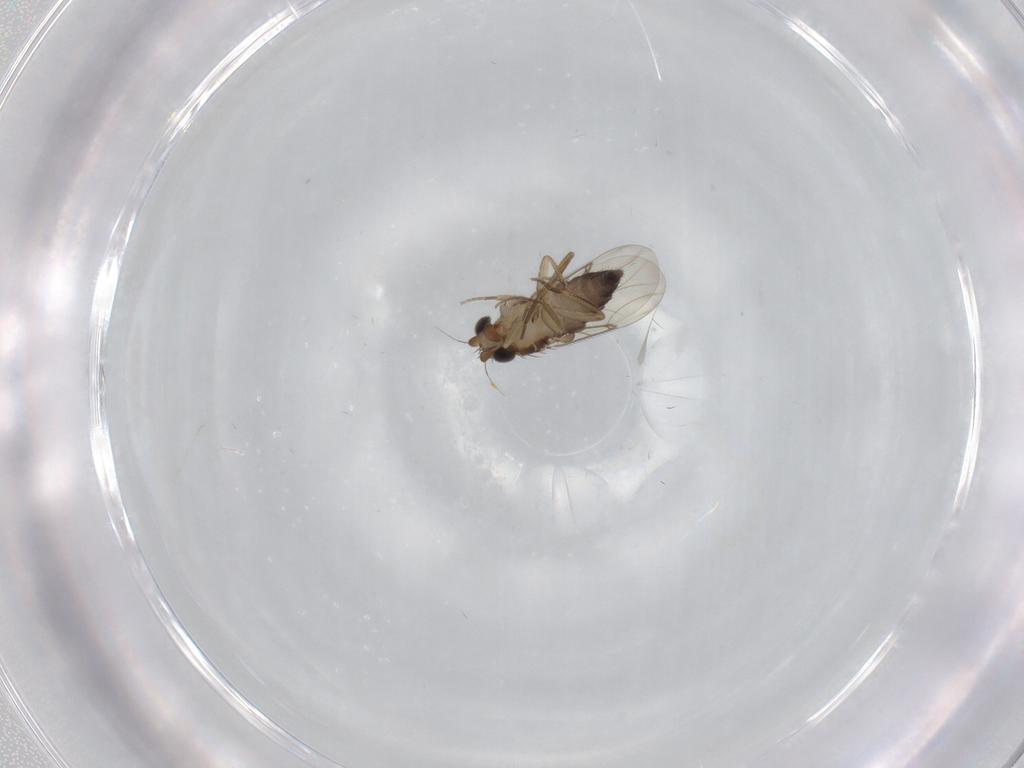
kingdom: Animalia
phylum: Arthropoda
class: Insecta
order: Diptera
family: Phoridae
